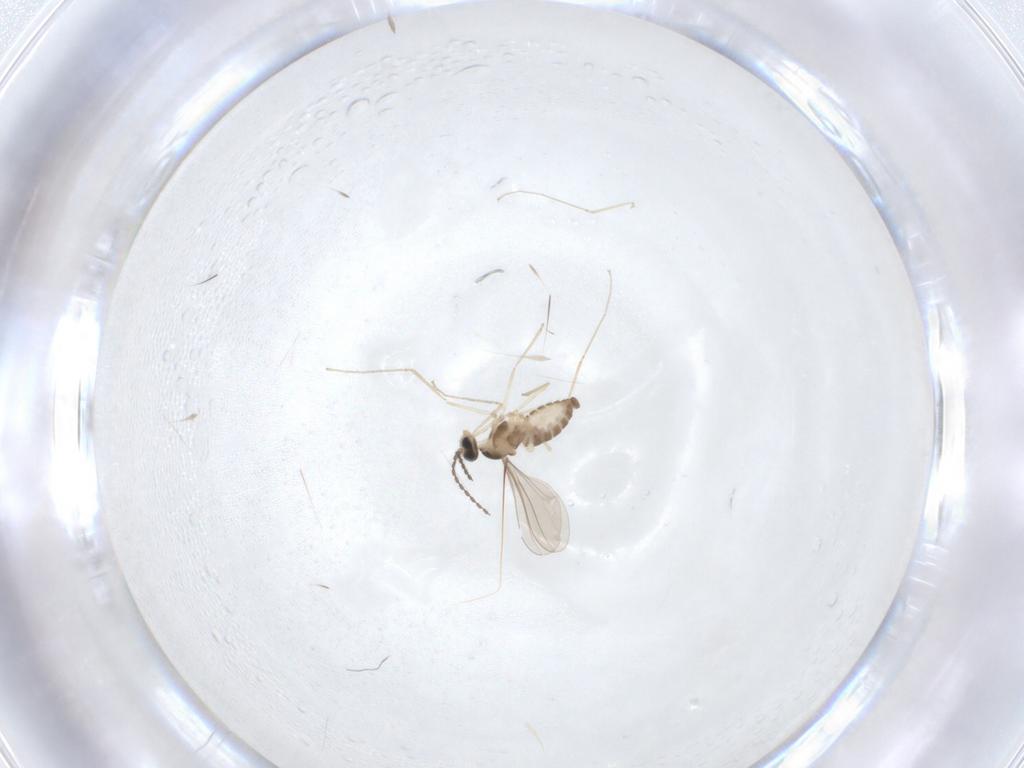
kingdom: Animalia
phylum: Arthropoda
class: Insecta
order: Diptera
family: Cecidomyiidae
